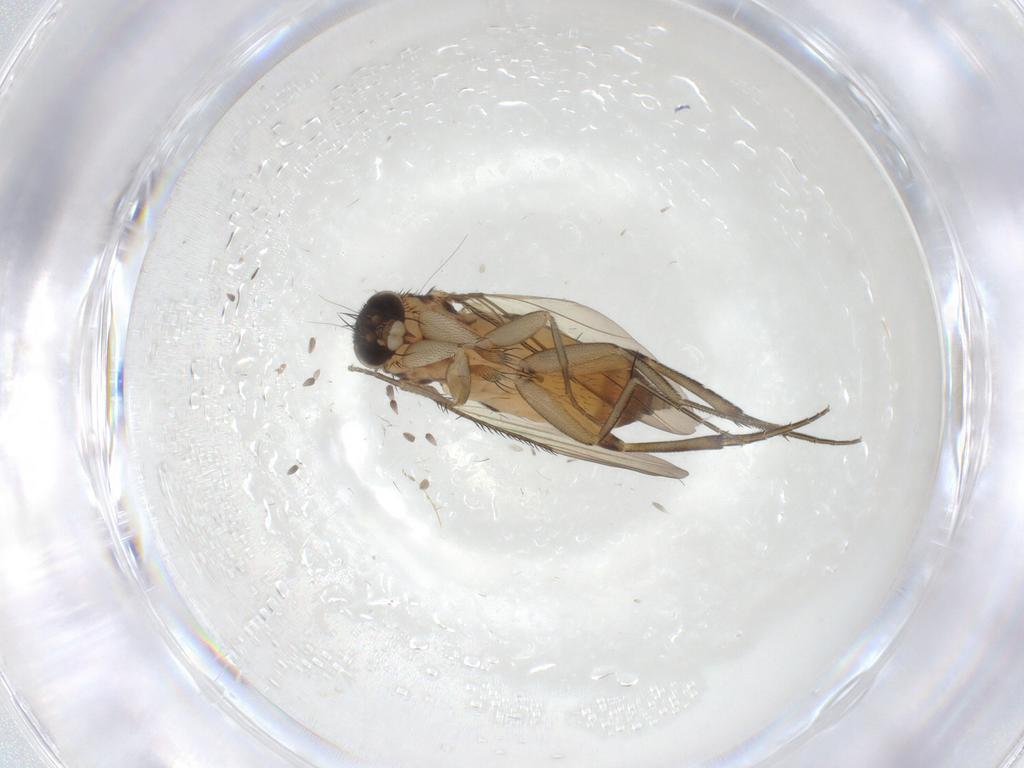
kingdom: Animalia
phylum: Arthropoda
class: Insecta
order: Diptera
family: Phoridae
